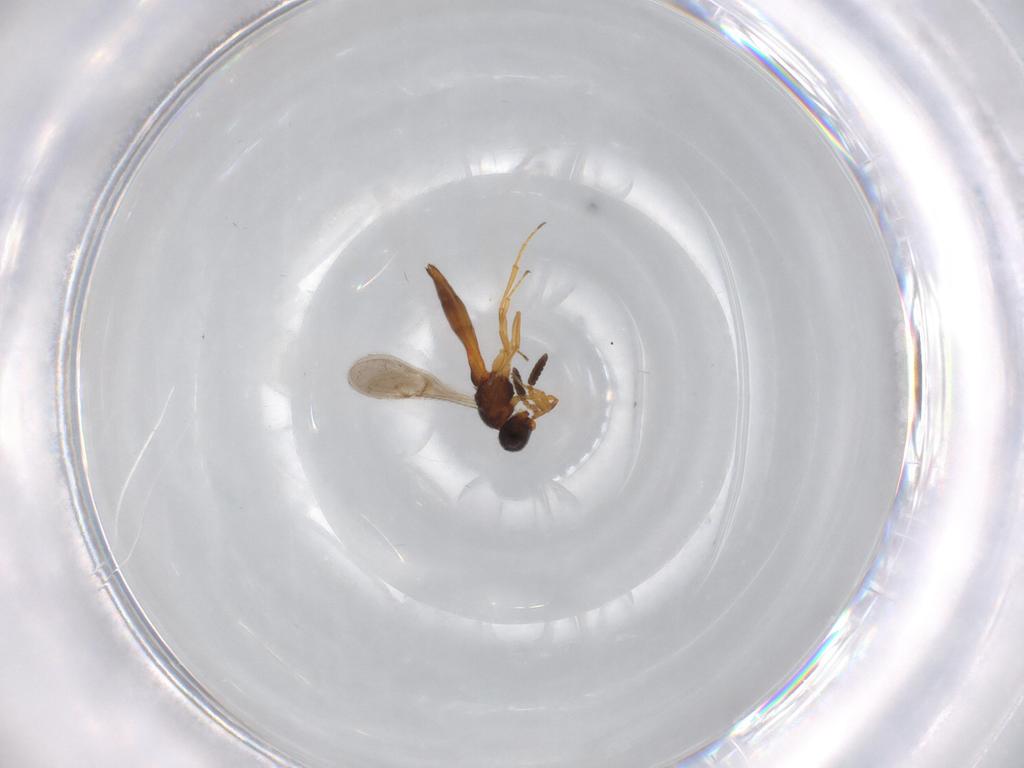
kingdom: Animalia
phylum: Arthropoda
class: Insecta
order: Hymenoptera
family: Scelionidae
